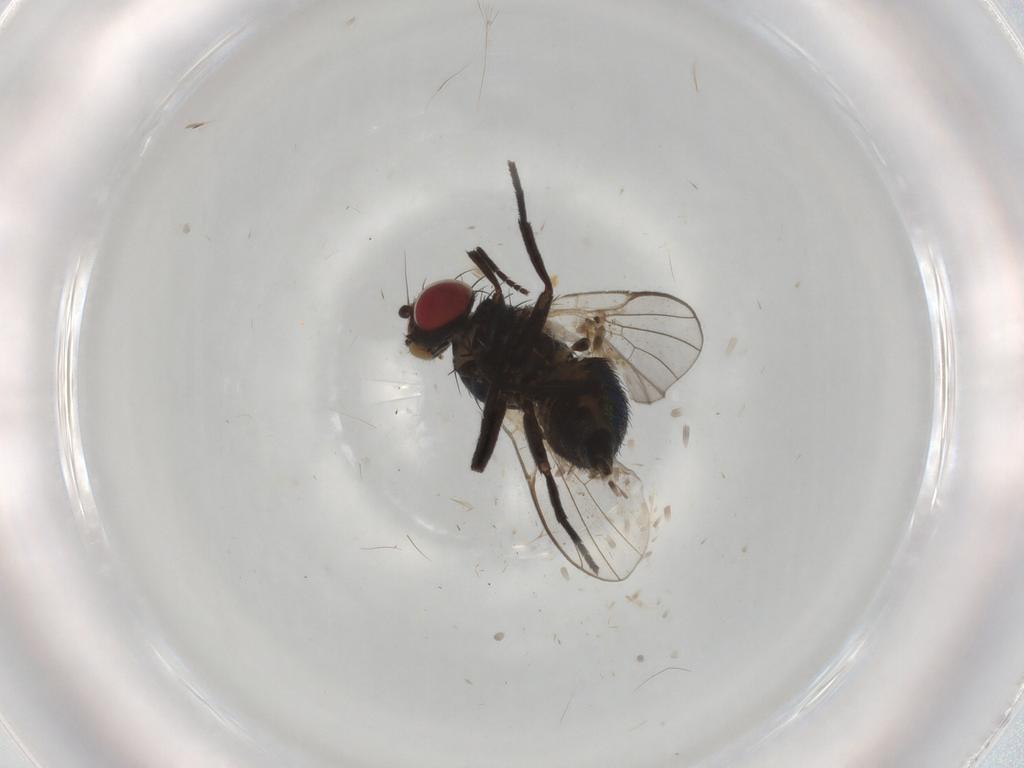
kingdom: Animalia
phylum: Arthropoda
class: Insecta
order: Diptera
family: Agromyzidae
